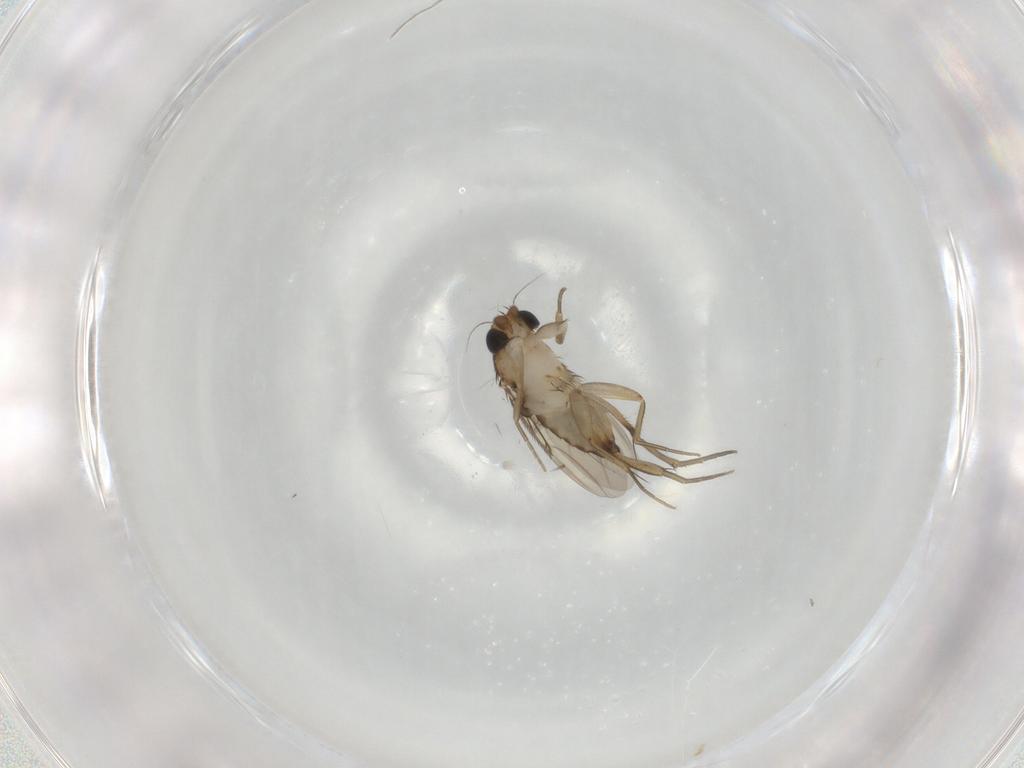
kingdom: Animalia
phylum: Arthropoda
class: Insecta
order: Diptera
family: Phoridae
